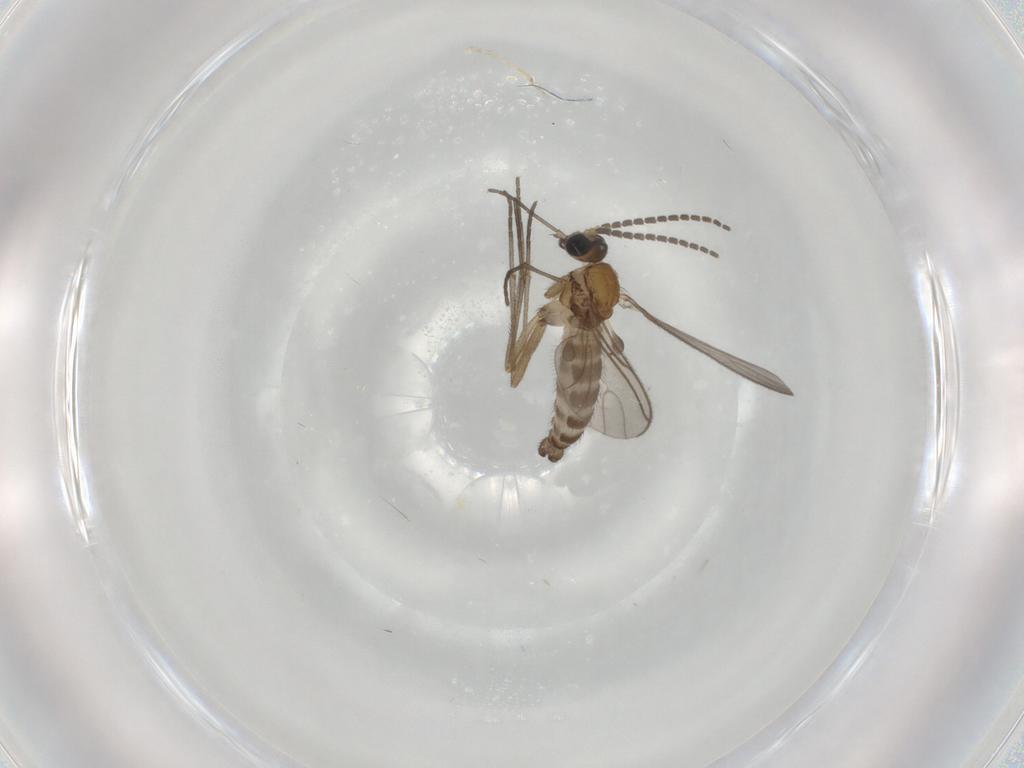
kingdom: Animalia
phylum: Arthropoda
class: Insecta
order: Diptera
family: Sciaridae
